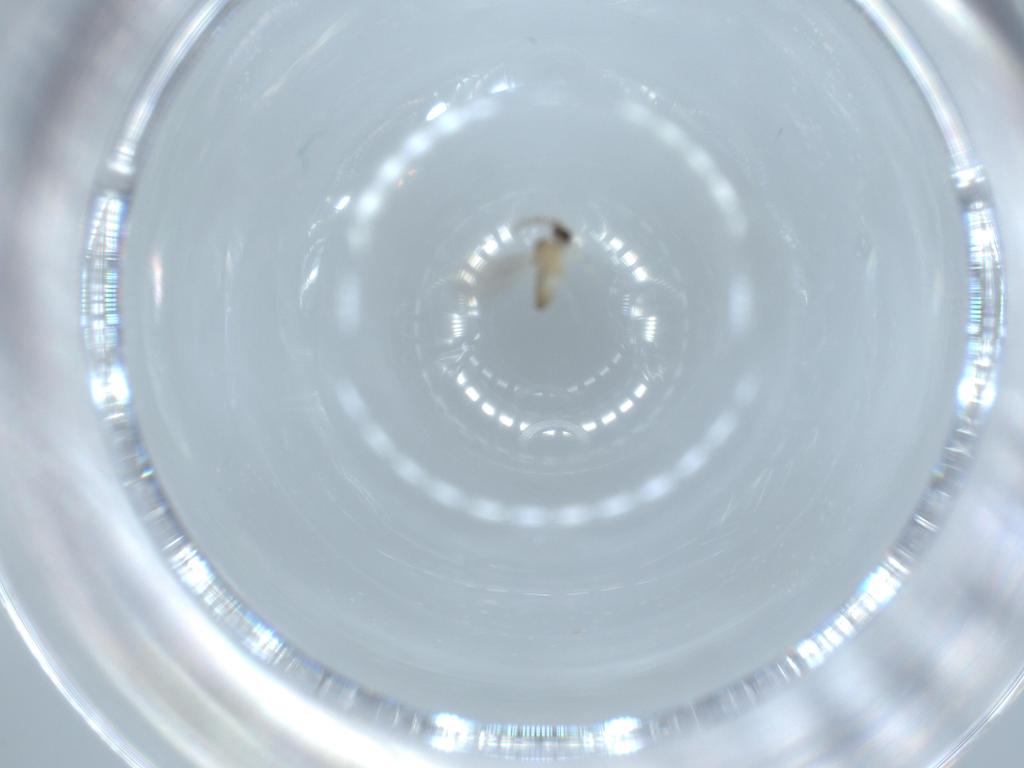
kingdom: Animalia
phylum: Arthropoda
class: Insecta
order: Diptera
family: Cecidomyiidae
